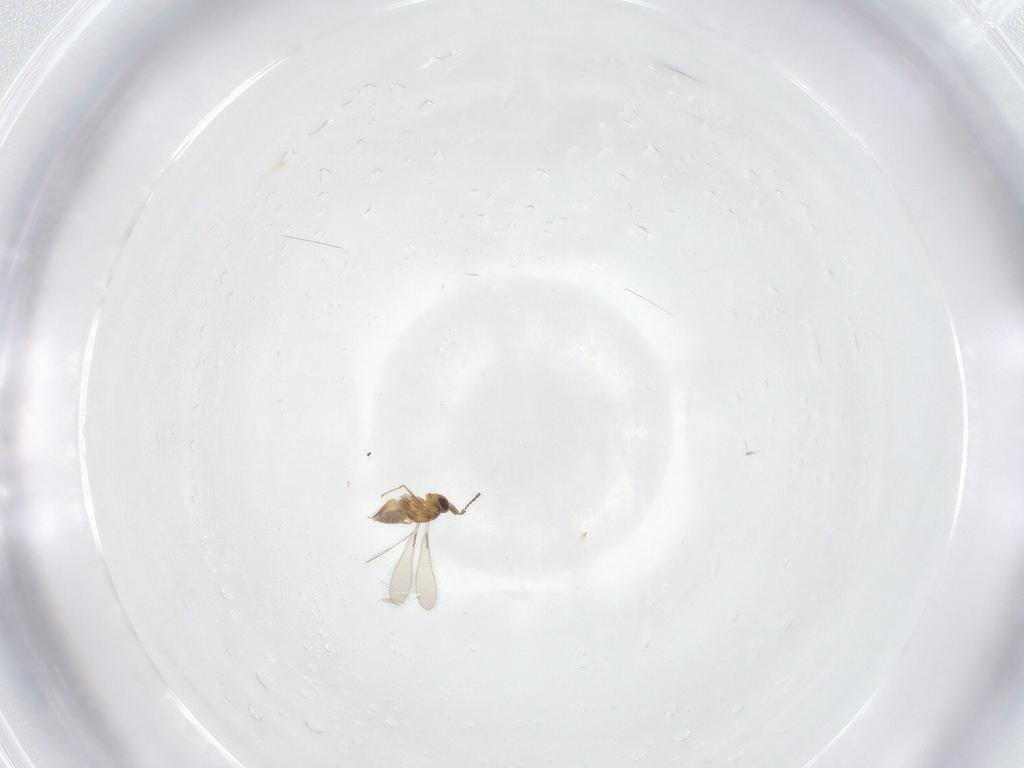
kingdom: Animalia
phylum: Arthropoda
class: Insecta
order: Hymenoptera
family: Mymaridae
